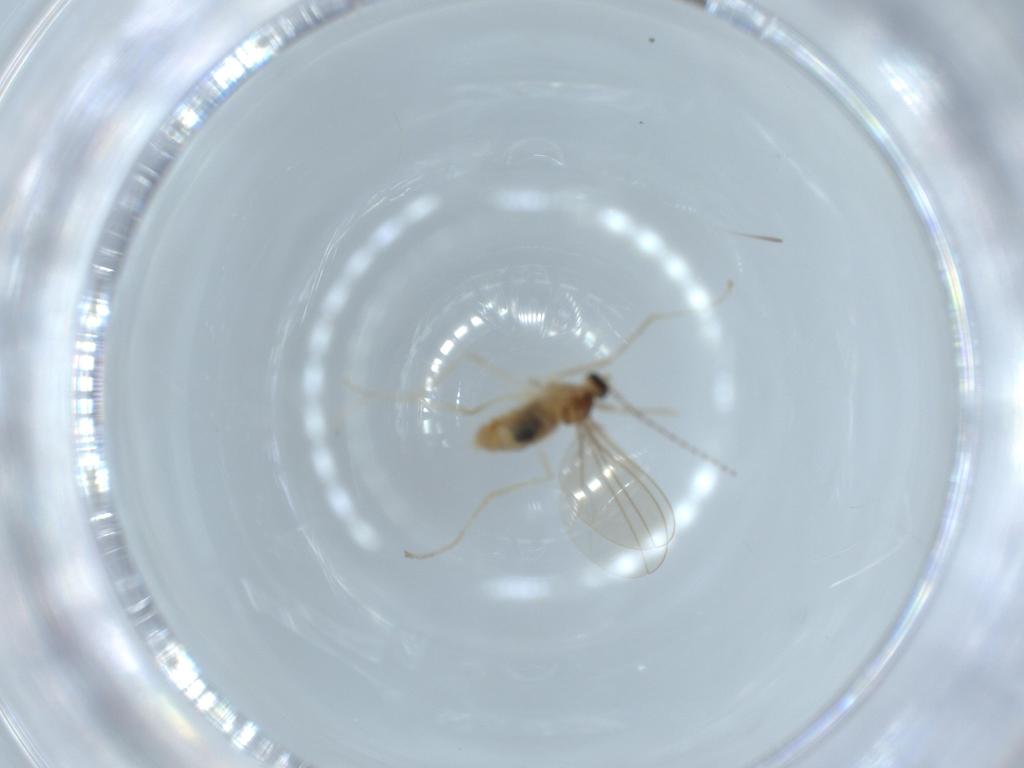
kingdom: Animalia
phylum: Arthropoda
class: Insecta
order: Diptera
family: Cecidomyiidae
